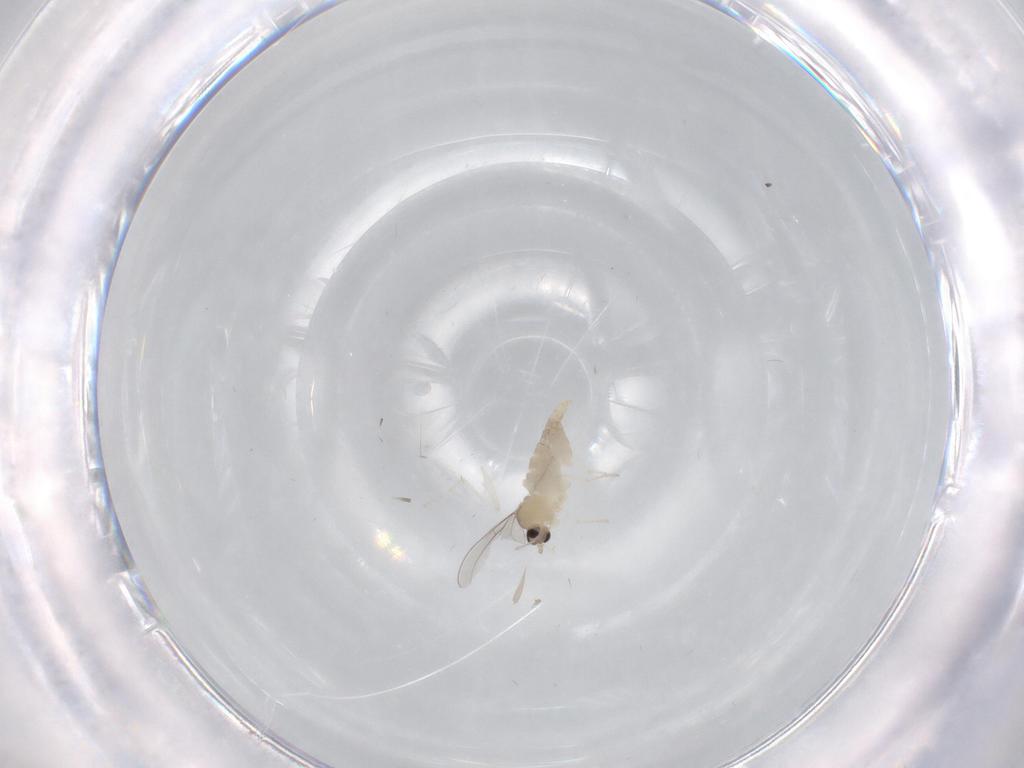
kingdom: Animalia
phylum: Arthropoda
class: Insecta
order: Diptera
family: Cecidomyiidae
